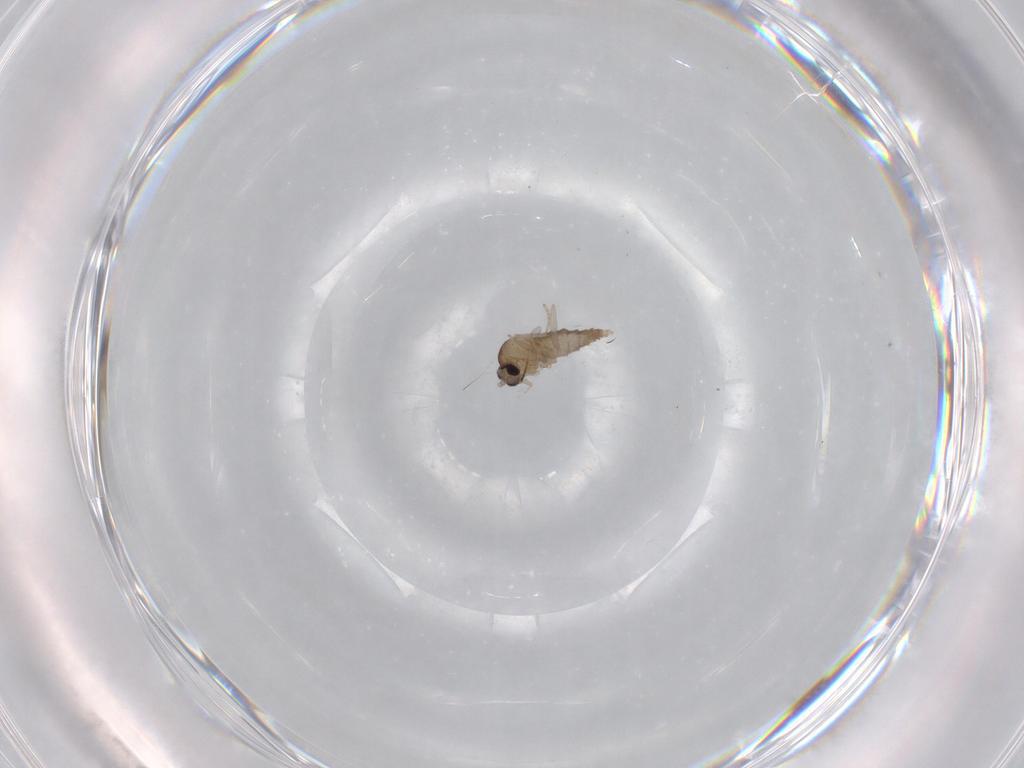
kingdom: Animalia
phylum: Arthropoda
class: Insecta
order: Diptera
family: Cecidomyiidae
